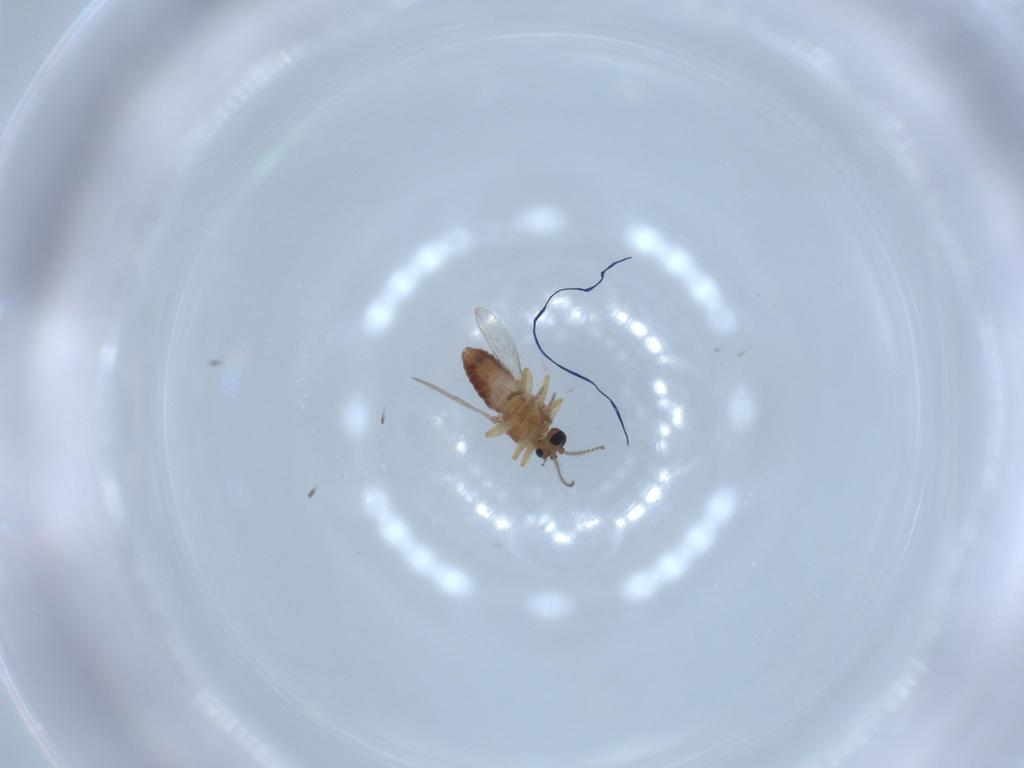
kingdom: Animalia
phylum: Arthropoda
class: Insecta
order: Diptera
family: Ceratopogonidae
